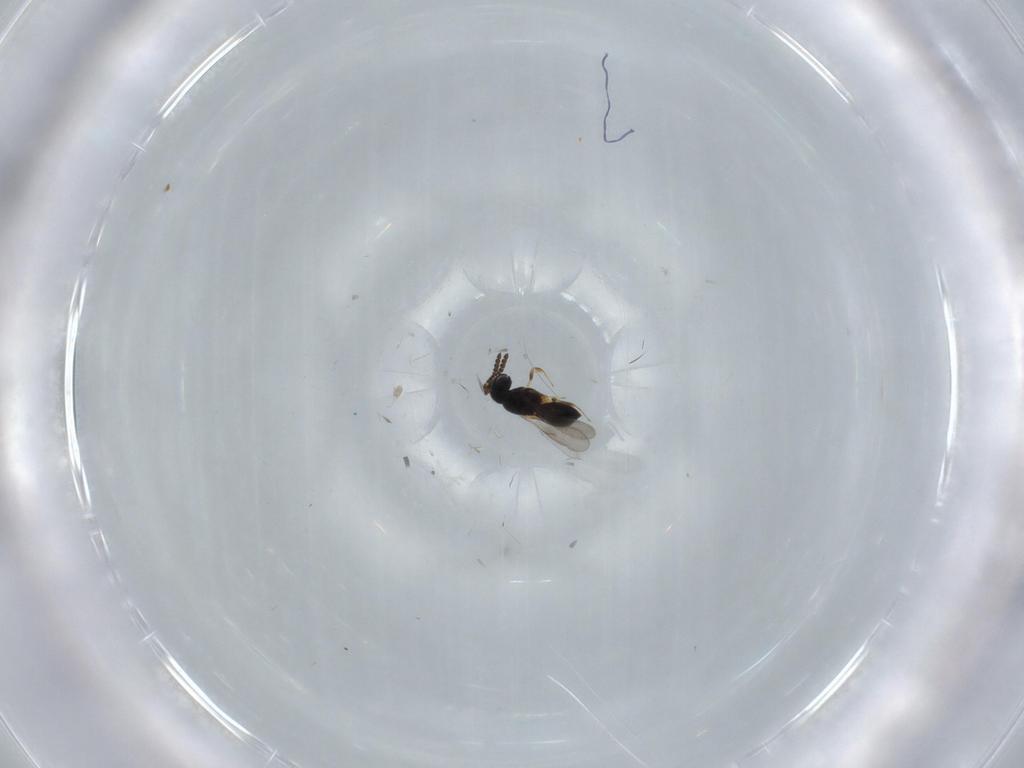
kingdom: Animalia
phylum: Arthropoda
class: Insecta
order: Hymenoptera
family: Scelionidae
